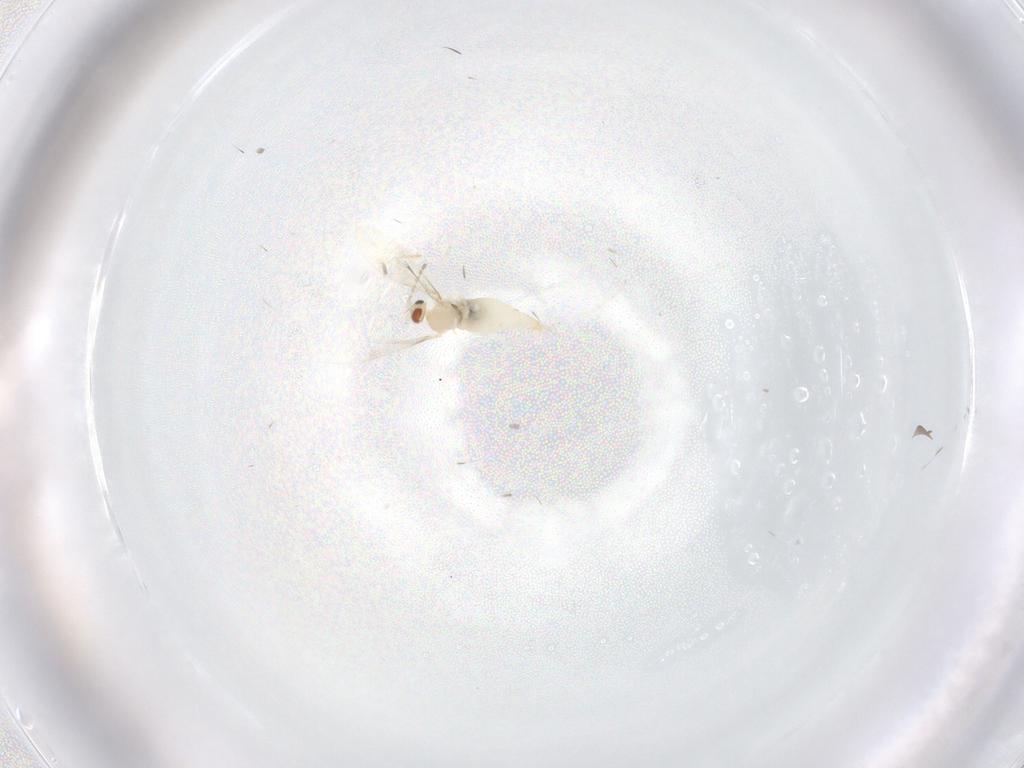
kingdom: Animalia
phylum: Arthropoda
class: Insecta
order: Diptera
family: Cecidomyiidae
